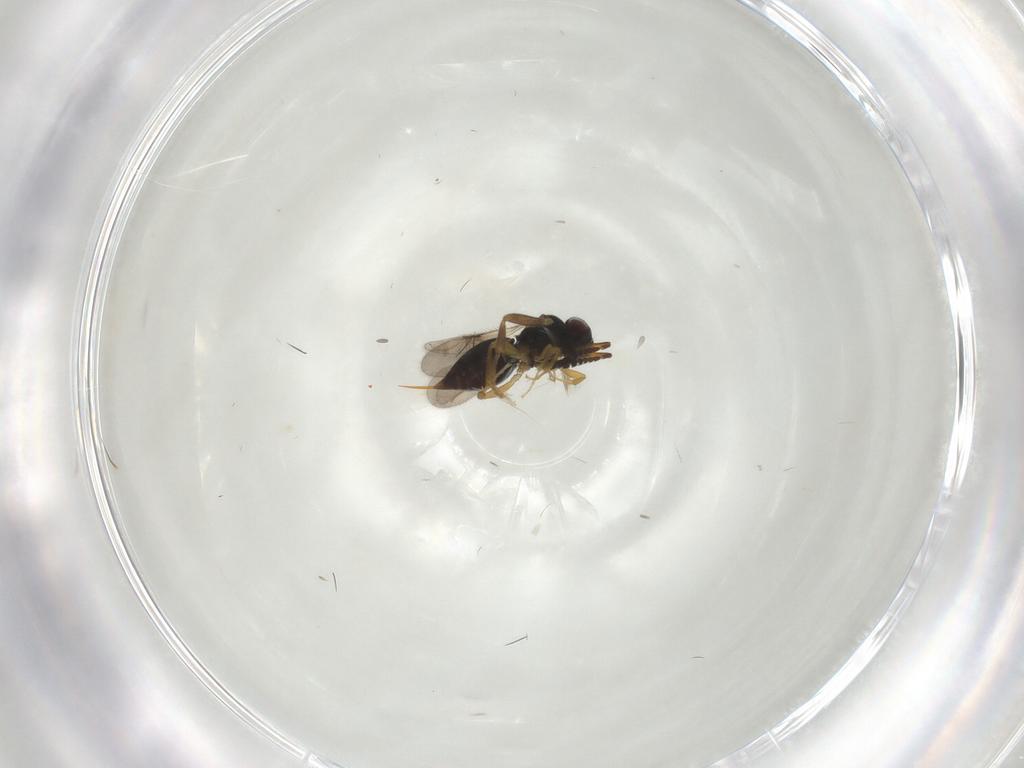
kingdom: Animalia
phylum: Arthropoda
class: Insecta
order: Hymenoptera
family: Formicidae
